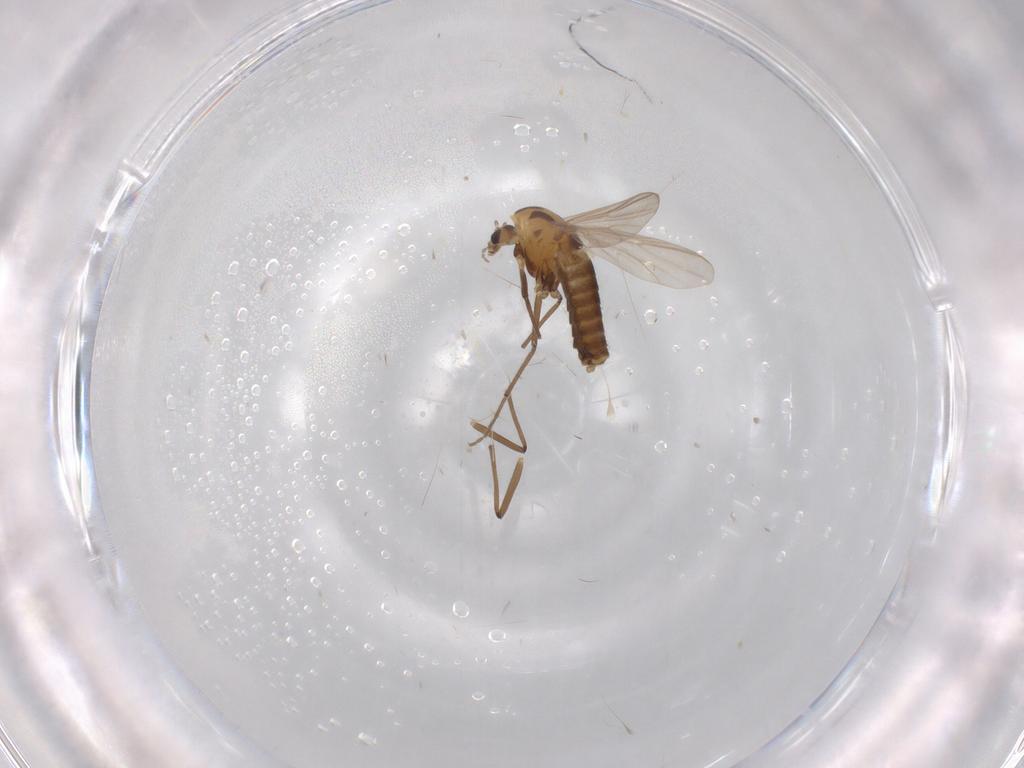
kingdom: Animalia
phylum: Arthropoda
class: Insecta
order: Diptera
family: Chironomidae
